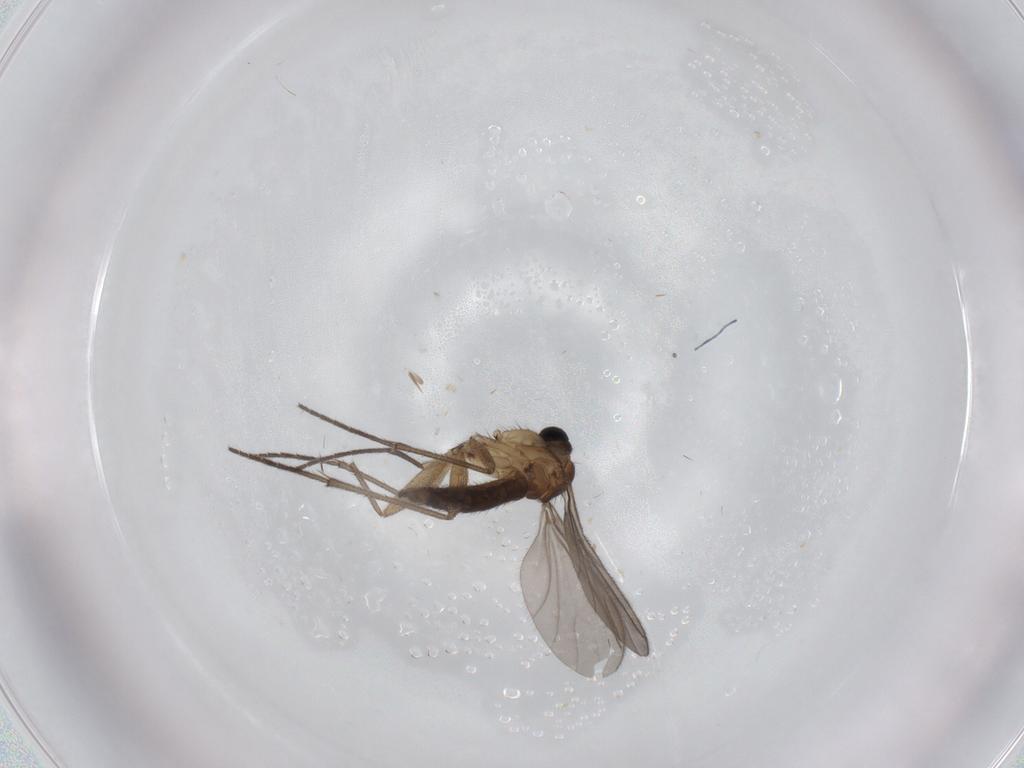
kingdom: Animalia
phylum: Arthropoda
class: Insecta
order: Diptera
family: Sciaridae
